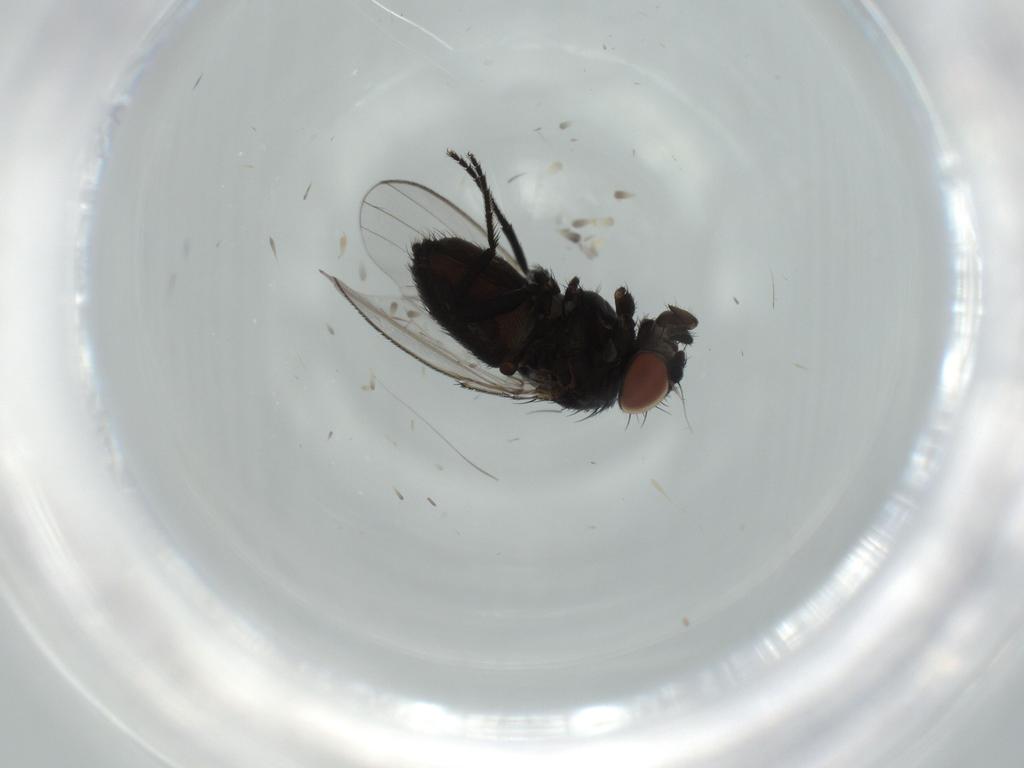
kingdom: Animalia
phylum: Arthropoda
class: Insecta
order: Diptera
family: Milichiidae
